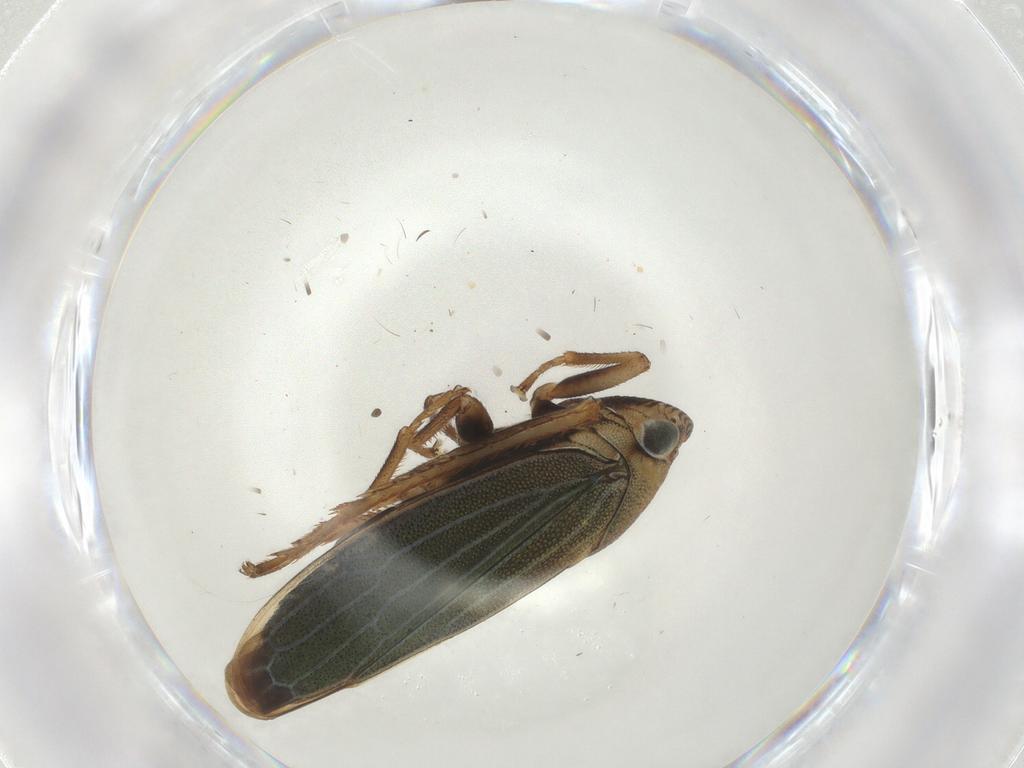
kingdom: Animalia
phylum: Arthropoda
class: Insecta
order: Hemiptera
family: Cicadellidae
